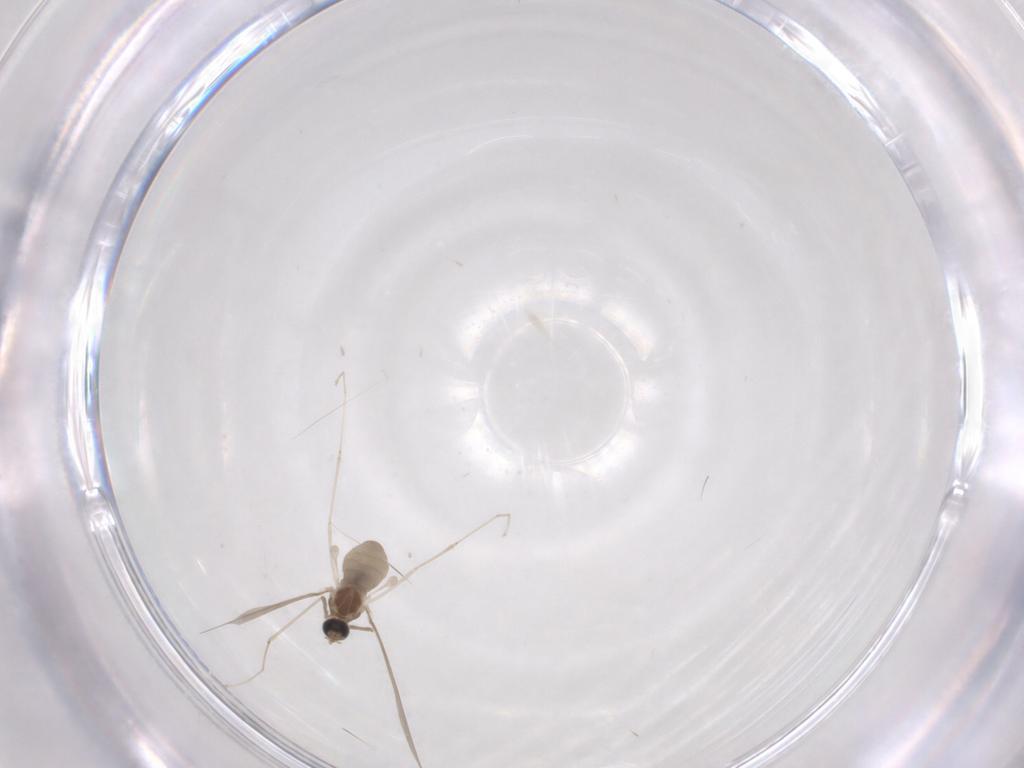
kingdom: Animalia
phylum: Arthropoda
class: Insecta
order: Diptera
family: Cecidomyiidae
